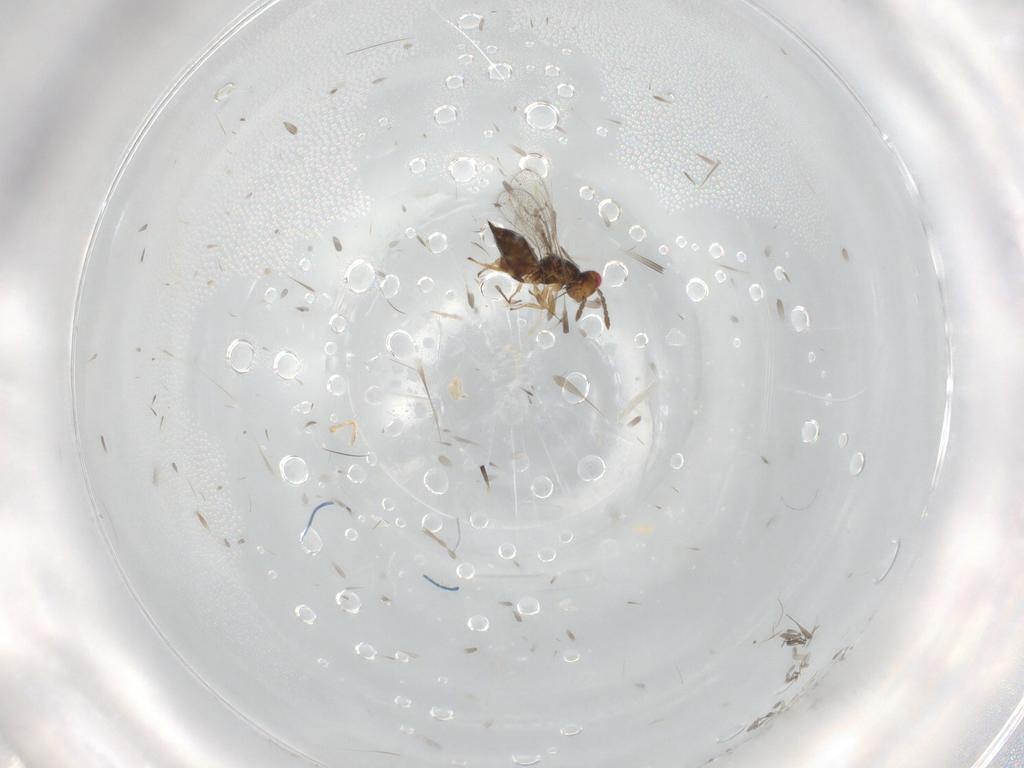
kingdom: Animalia
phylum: Arthropoda
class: Insecta
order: Hymenoptera
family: Eulophidae
